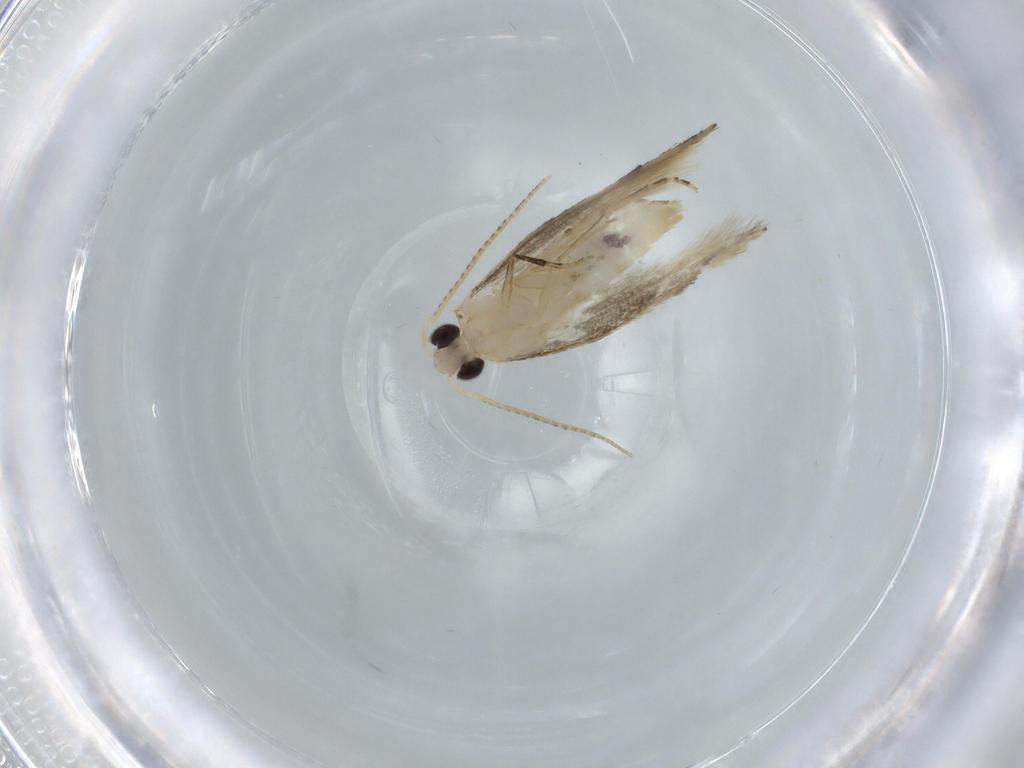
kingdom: Animalia
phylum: Arthropoda
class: Insecta
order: Lepidoptera
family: Bucculatricidae
